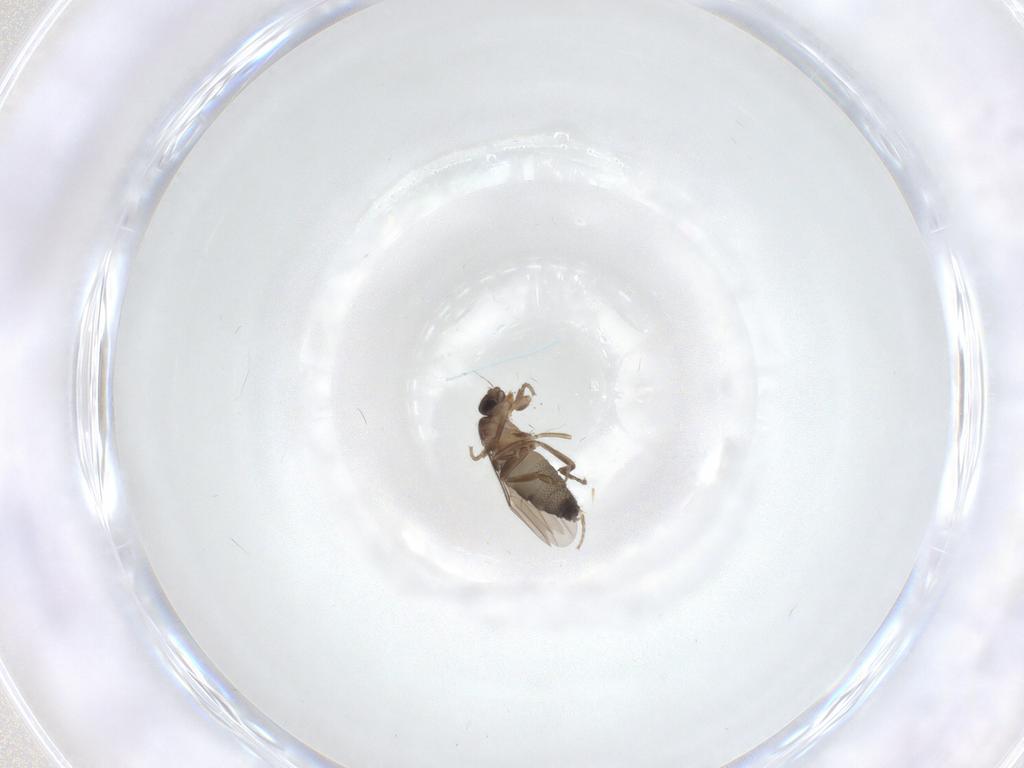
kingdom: Animalia
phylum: Arthropoda
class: Insecta
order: Diptera
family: Phoridae
